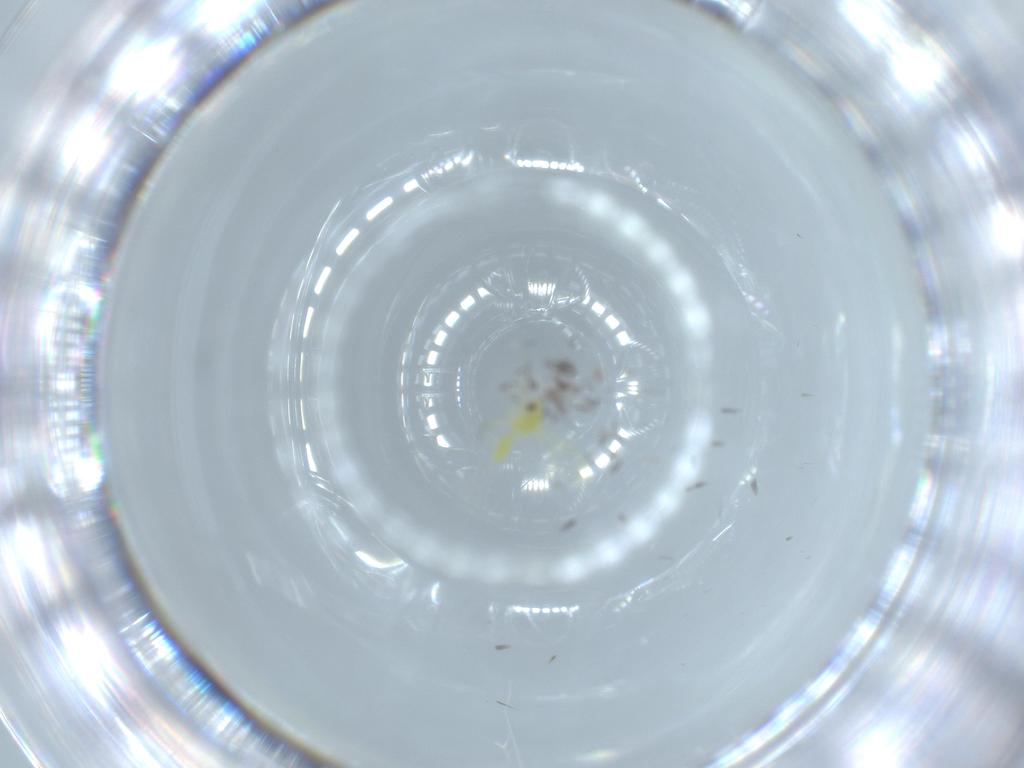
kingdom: Animalia
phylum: Arthropoda
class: Insecta
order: Hemiptera
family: Aleyrodidae
